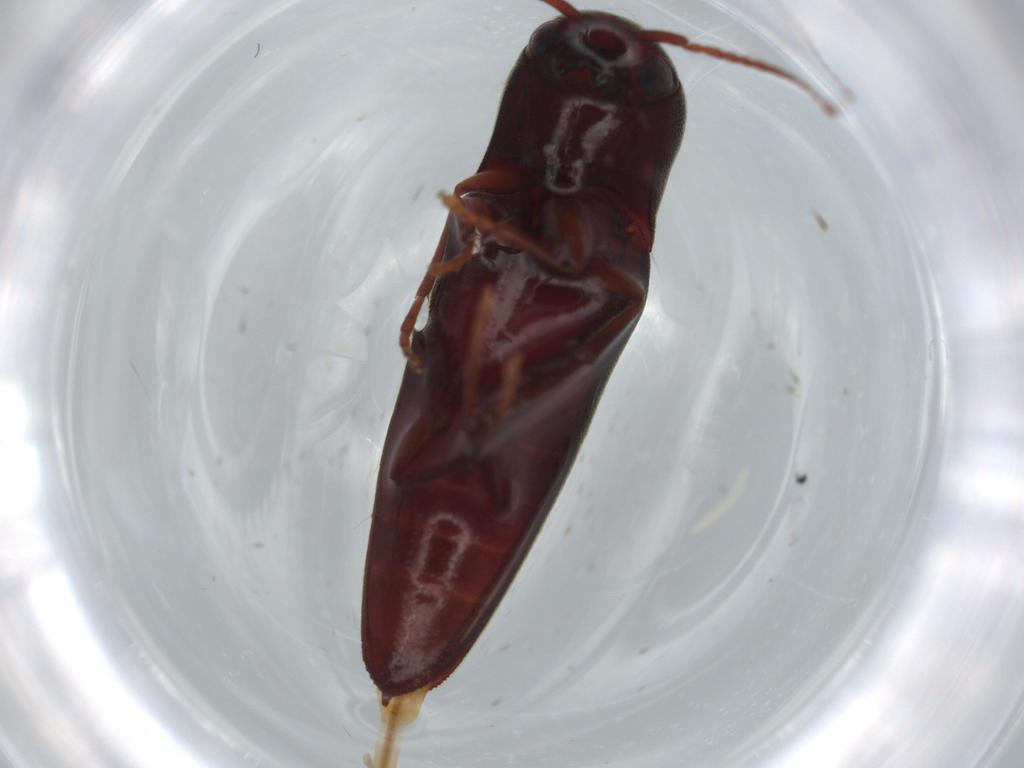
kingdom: Animalia
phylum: Arthropoda
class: Insecta
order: Coleoptera
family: Eucnemidae
